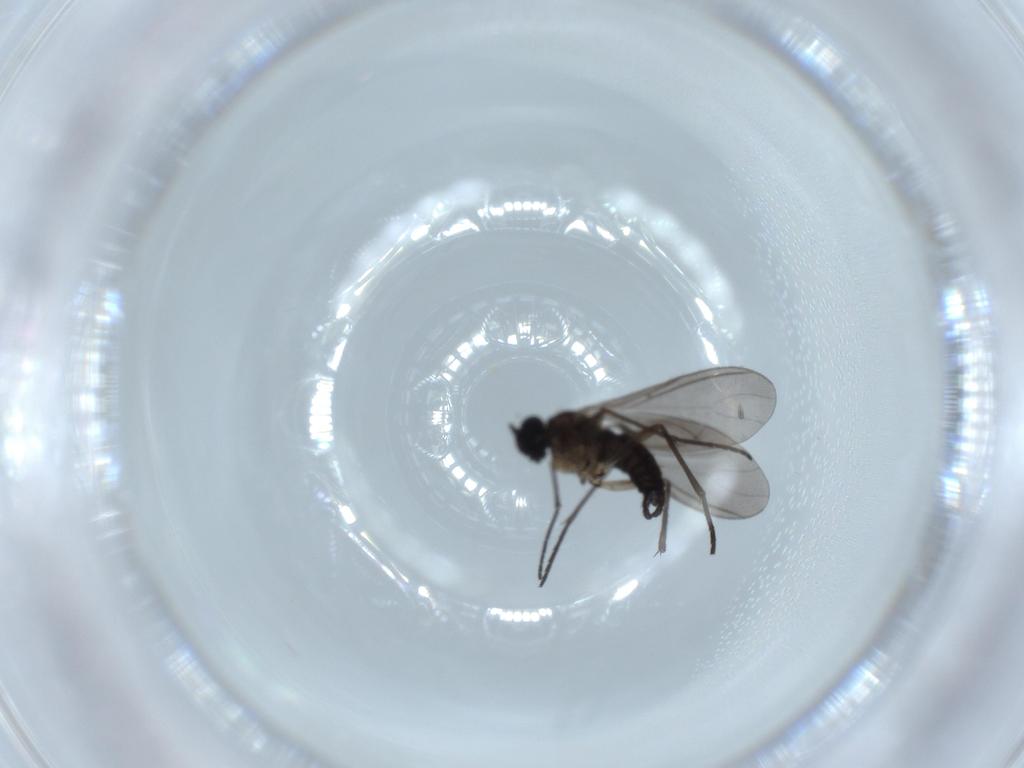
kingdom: Animalia
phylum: Arthropoda
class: Insecta
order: Diptera
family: Sciaridae
